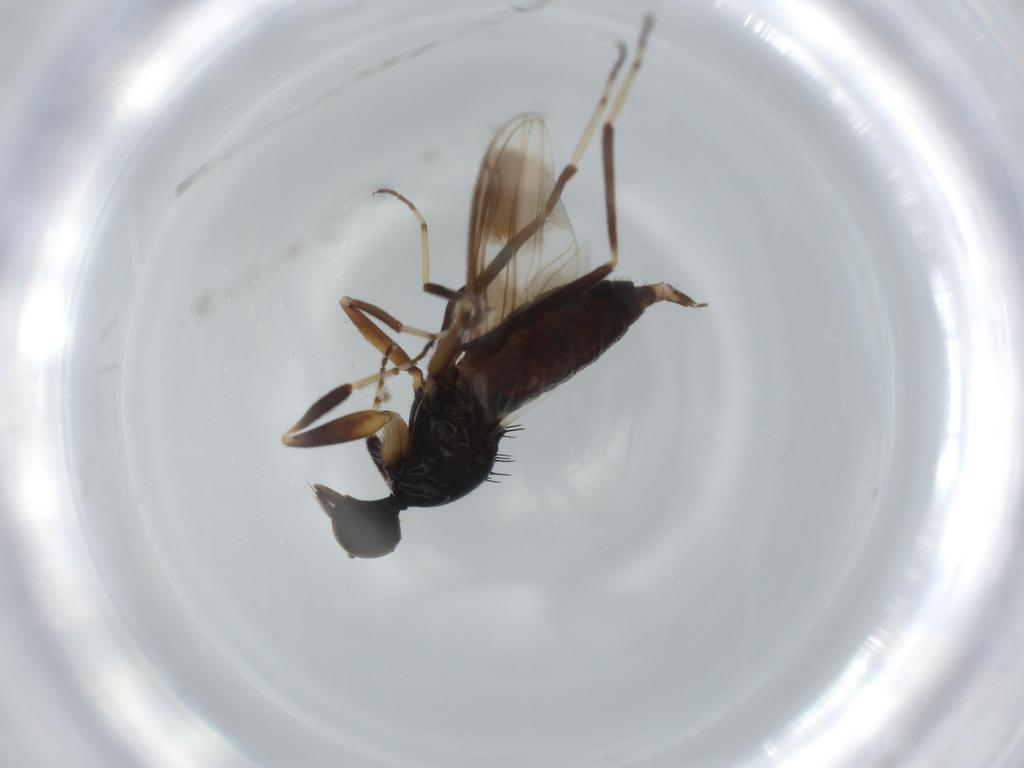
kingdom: Animalia
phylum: Arthropoda
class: Insecta
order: Diptera
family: Hybotidae
